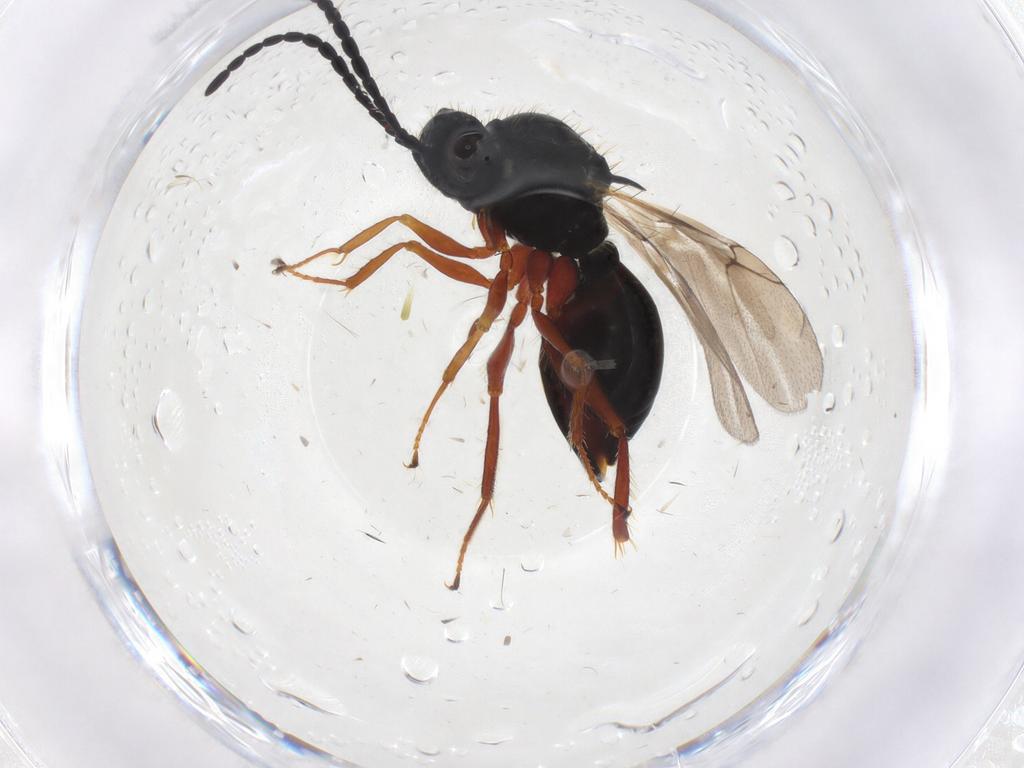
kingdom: Animalia
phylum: Arthropoda
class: Insecta
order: Hymenoptera
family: Figitidae
